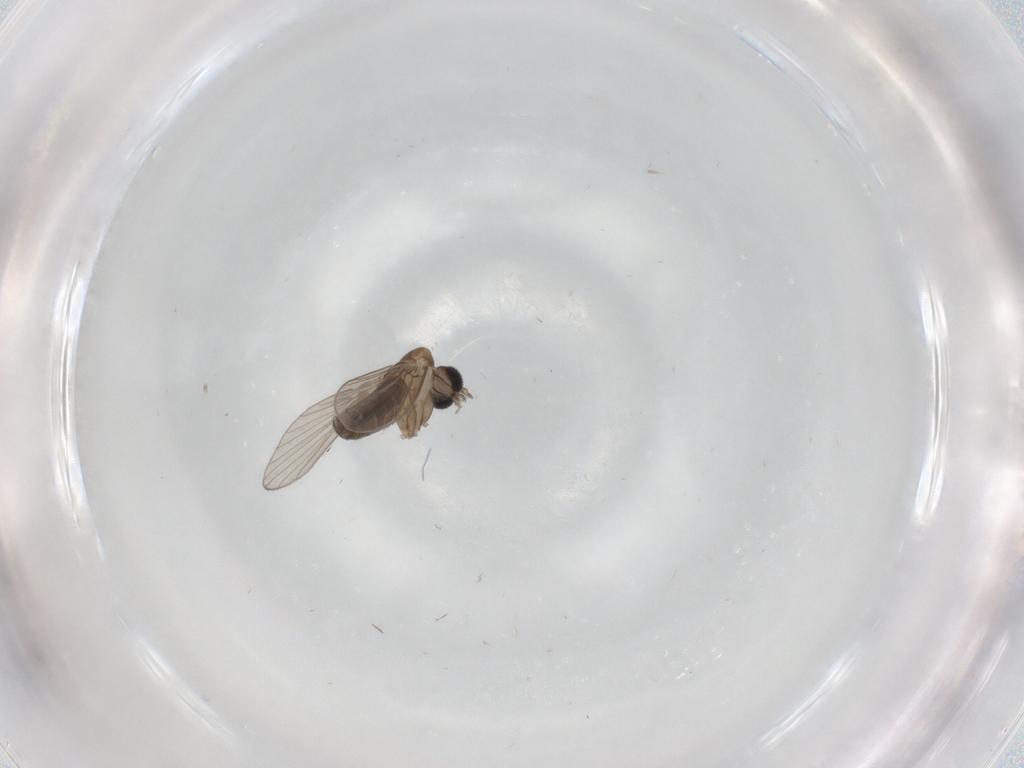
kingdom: Animalia
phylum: Arthropoda
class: Insecta
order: Diptera
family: Psychodidae
